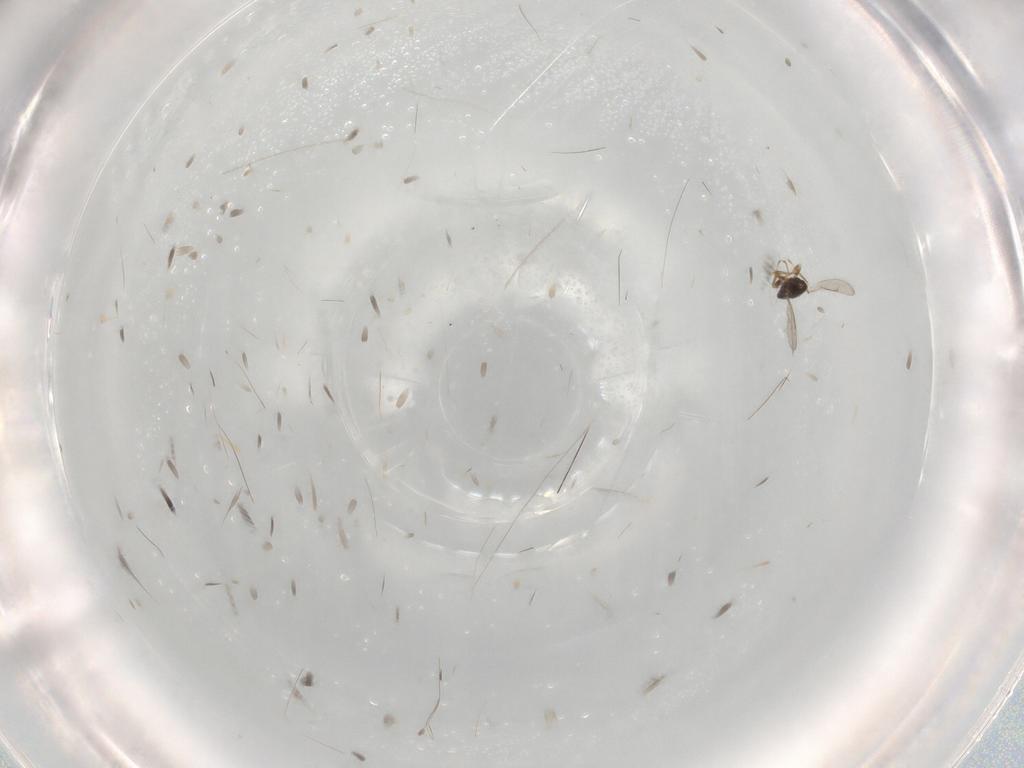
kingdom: Animalia
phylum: Arthropoda
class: Insecta
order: Hymenoptera
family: Aphelinidae
